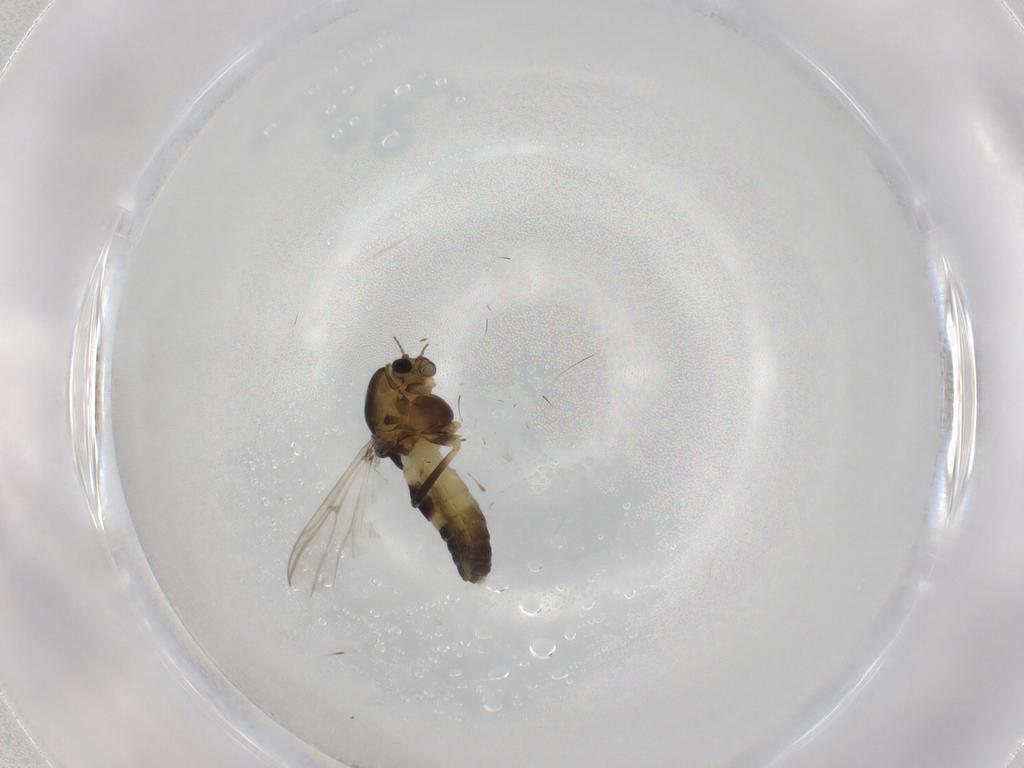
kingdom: Animalia
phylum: Arthropoda
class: Insecta
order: Diptera
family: Chironomidae
